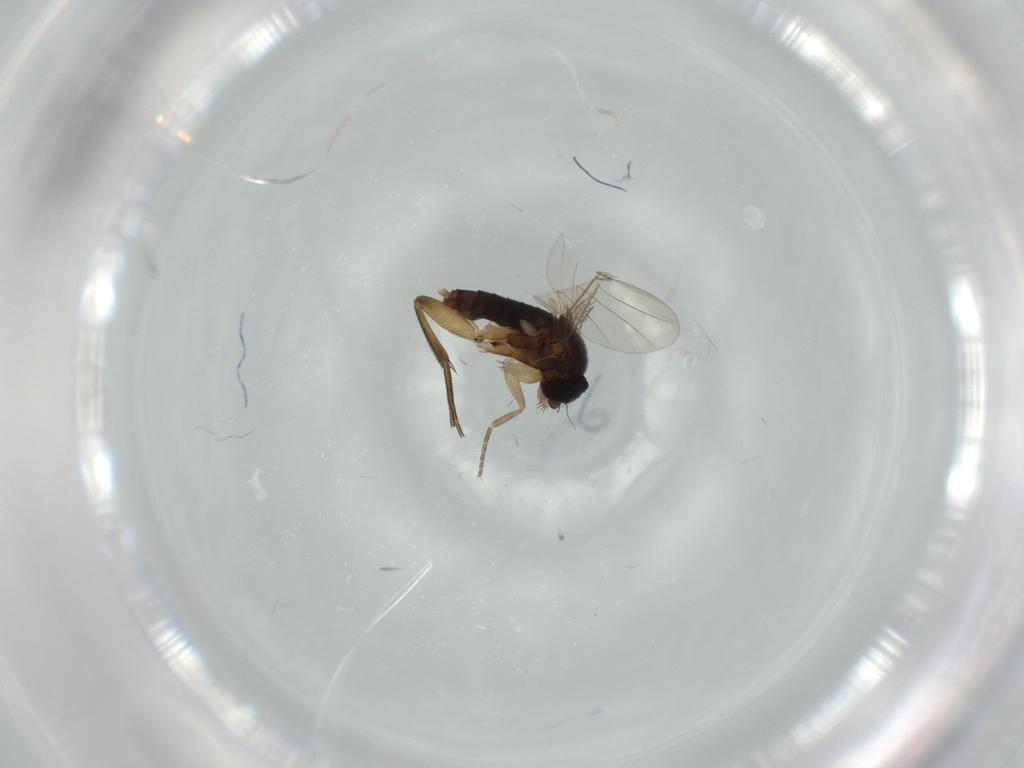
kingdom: Animalia
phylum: Arthropoda
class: Insecta
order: Diptera
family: Phoridae
